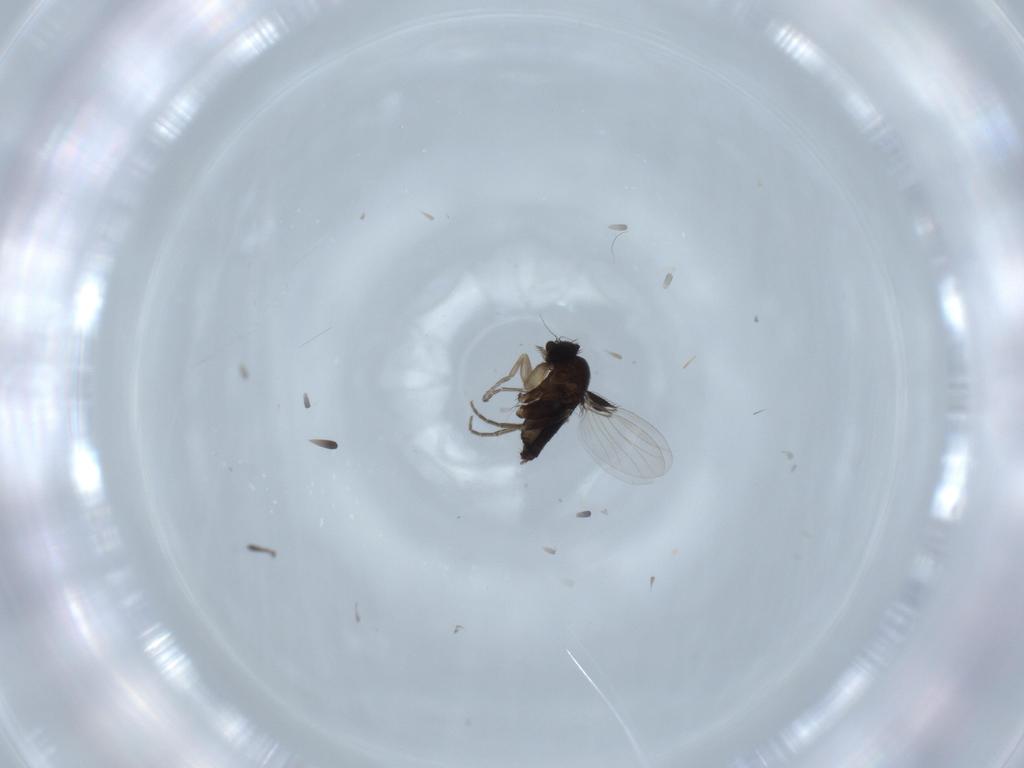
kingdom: Animalia
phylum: Arthropoda
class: Insecta
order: Diptera
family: Phoridae
